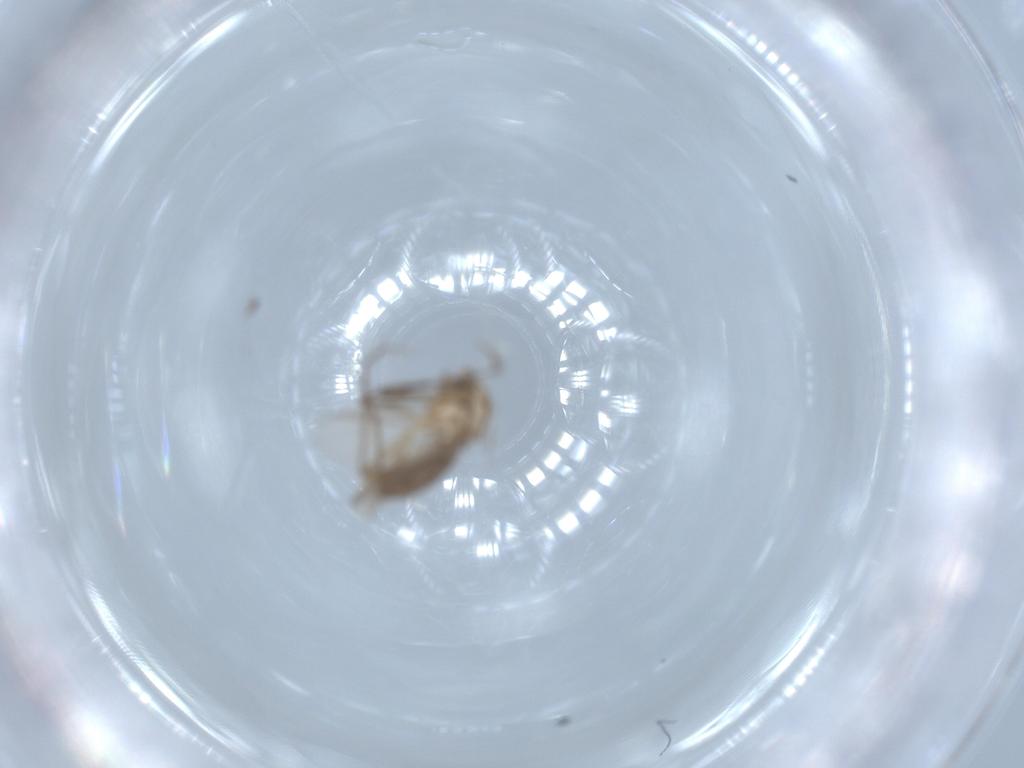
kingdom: Animalia
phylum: Arthropoda
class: Insecta
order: Diptera
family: Chironomidae
